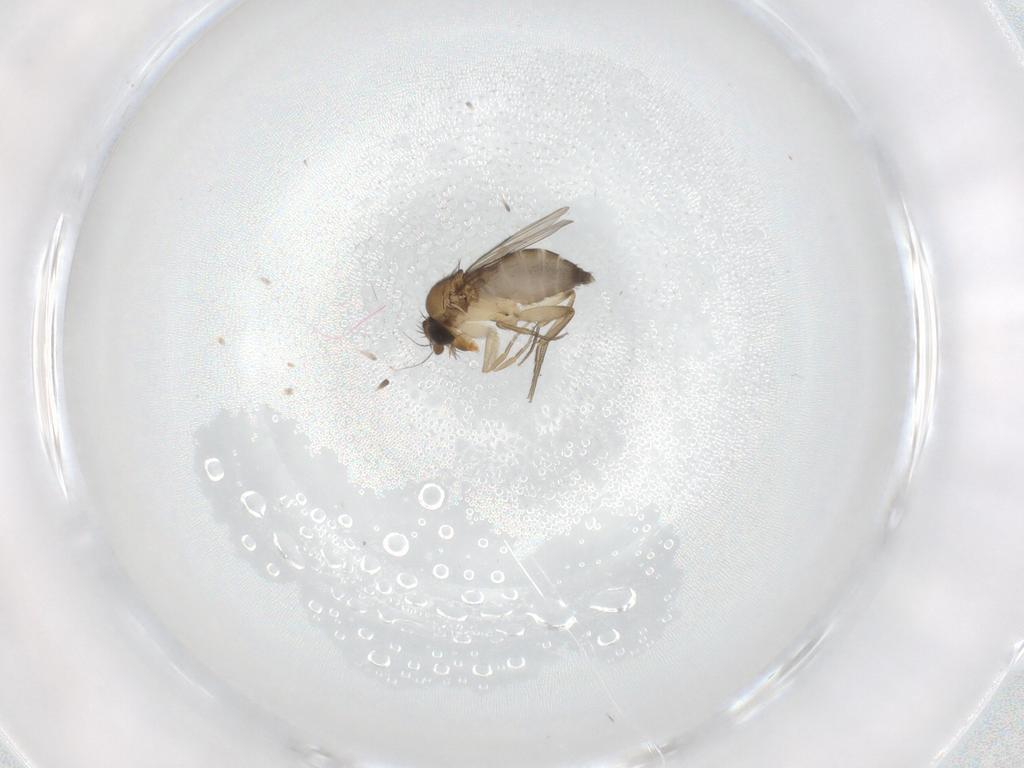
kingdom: Animalia
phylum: Arthropoda
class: Insecta
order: Diptera
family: Phoridae
